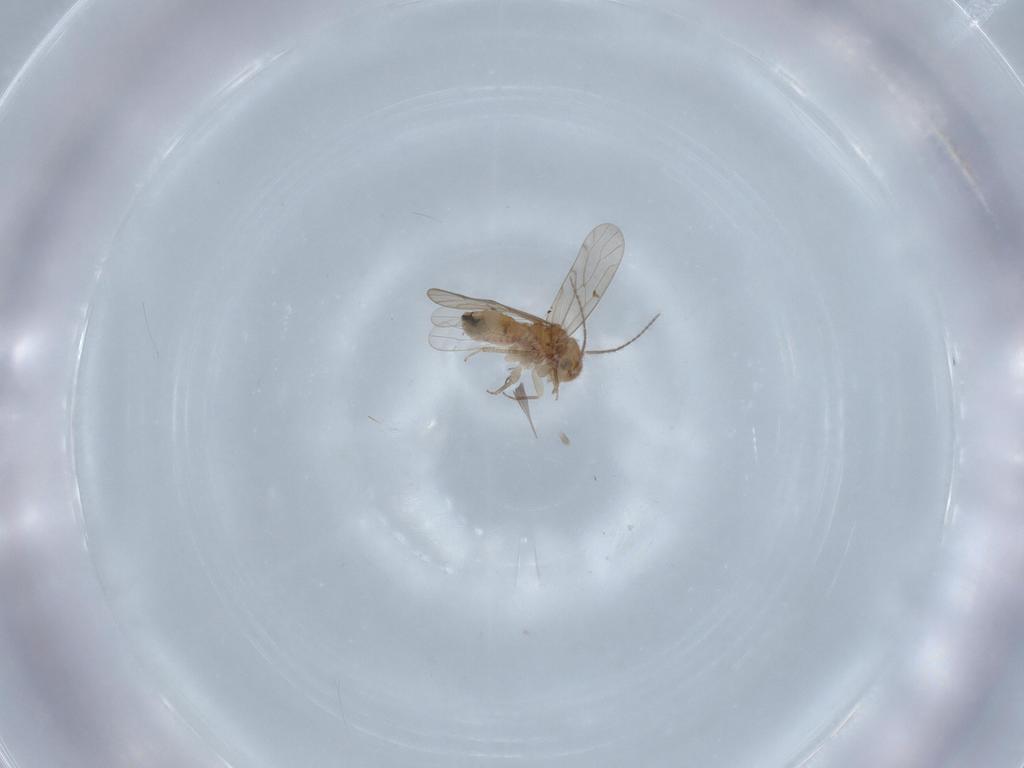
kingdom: Animalia
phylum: Arthropoda
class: Insecta
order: Psocodea
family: Ectopsocidae
